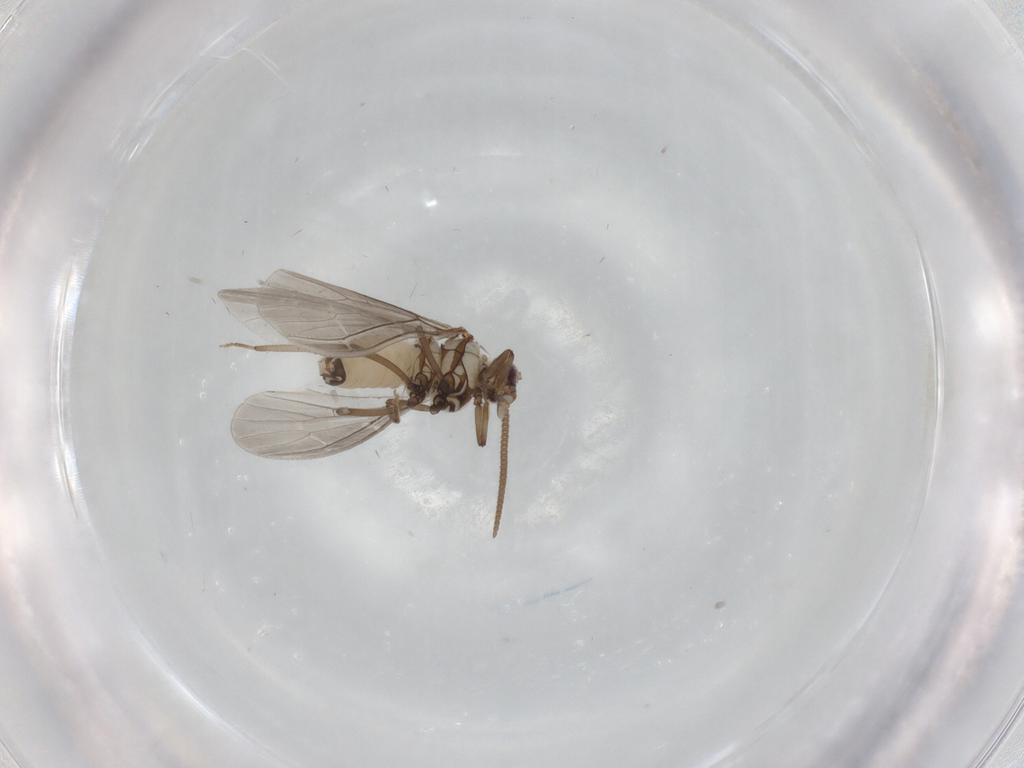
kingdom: Animalia
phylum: Arthropoda
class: Insecta
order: Neuroptera
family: Coniopterygidae
